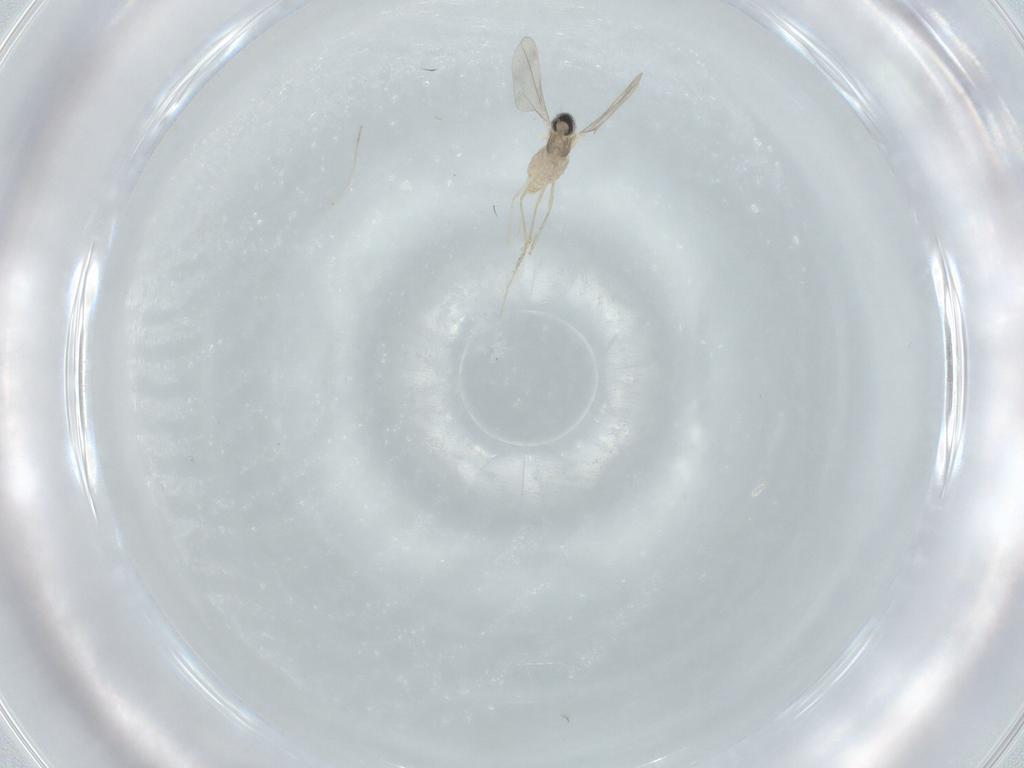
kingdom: Animalia
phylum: Arthropoda
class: Insecta
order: Diptera
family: Cecidomyiidae
